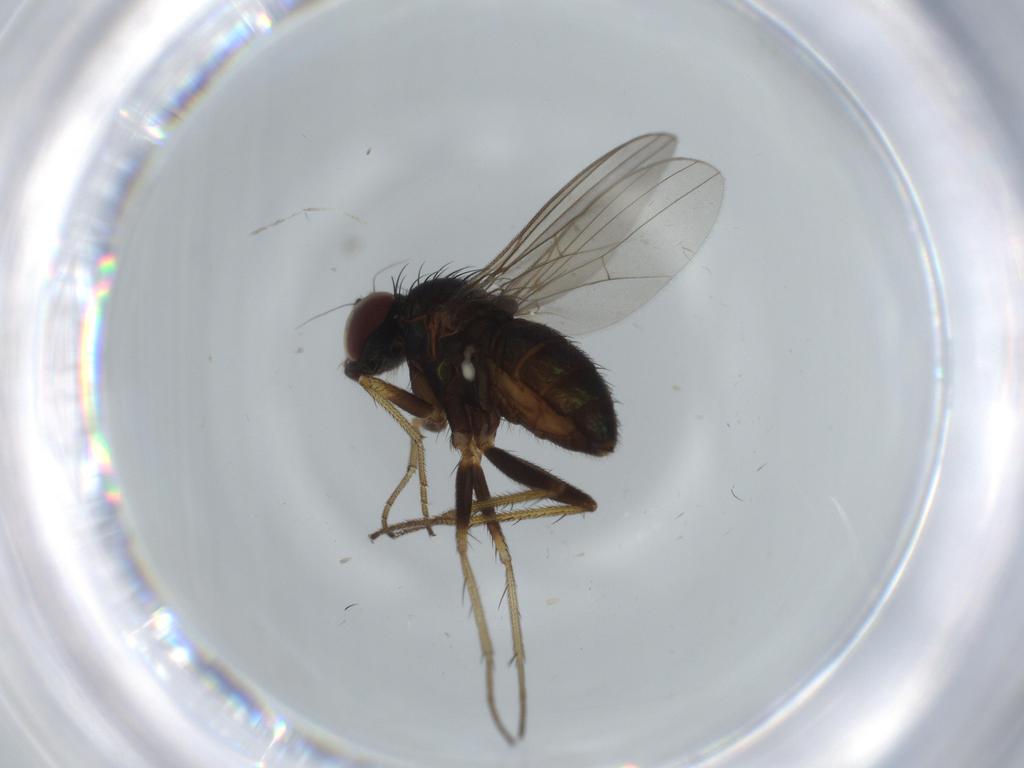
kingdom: Animalia
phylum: Arthropoda
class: Insecta
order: Diptera
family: Dolichopodidae
